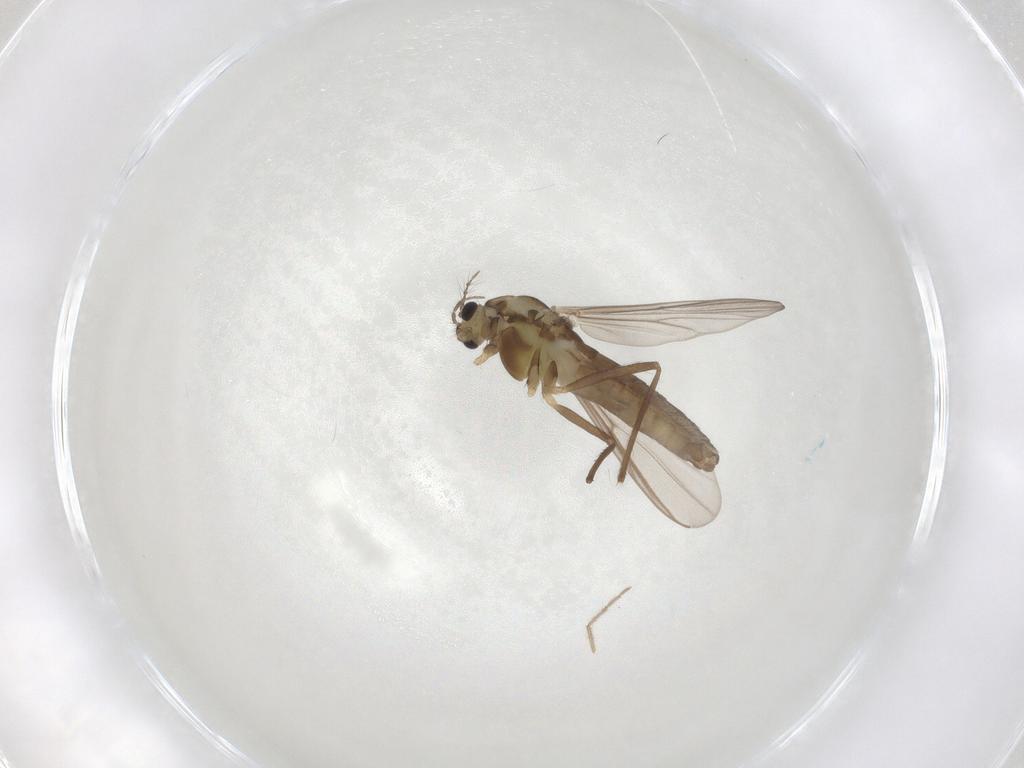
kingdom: Animalia
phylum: Arthropoda
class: Insecta
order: Diptera
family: Chironomidae
